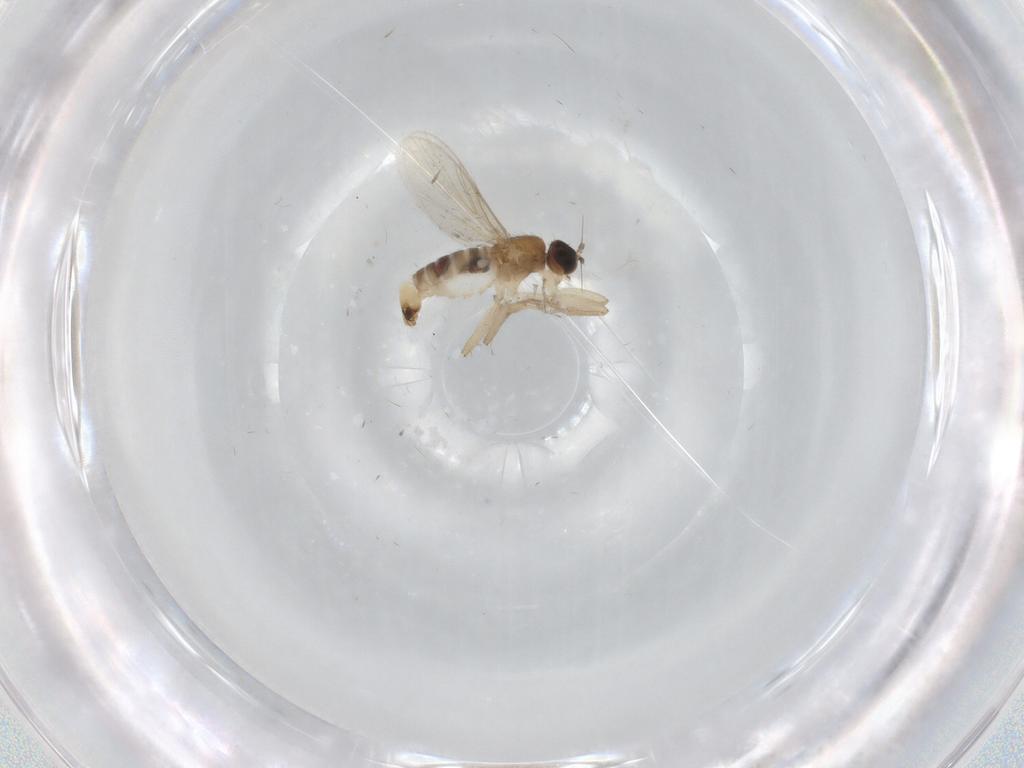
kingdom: Animalia
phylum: Arthropoda
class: Insecta
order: Diptera
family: Hybotidae
